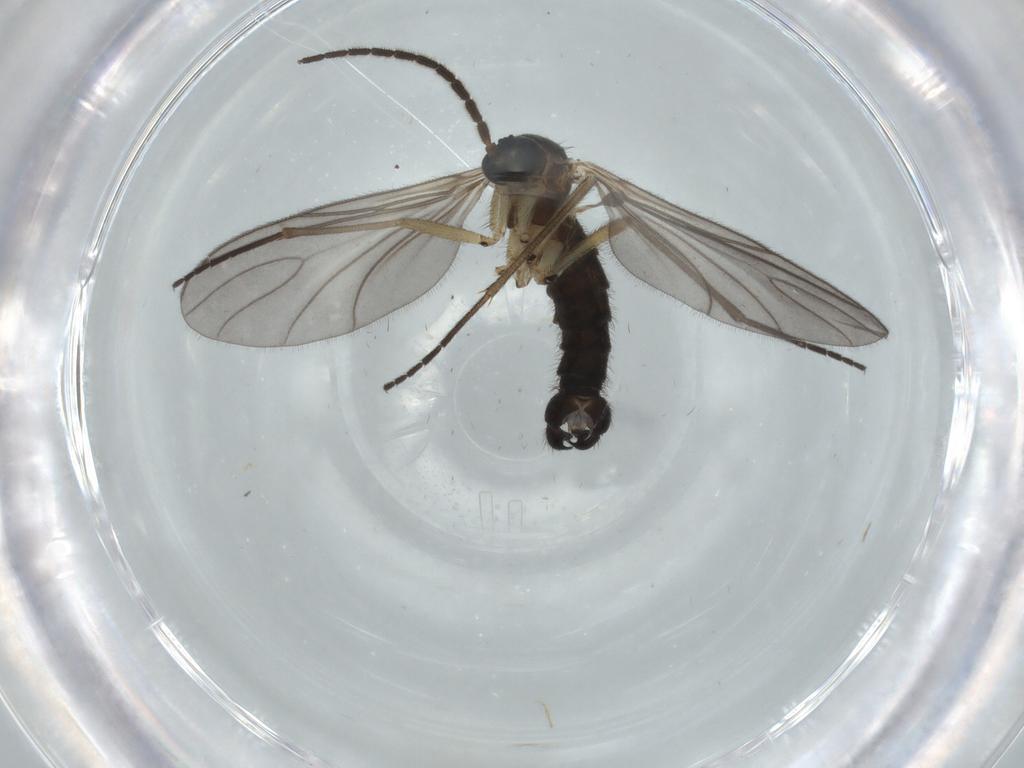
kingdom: Animalia
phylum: Arthropoda
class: Insecta
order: Diptera
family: Sciaridae
